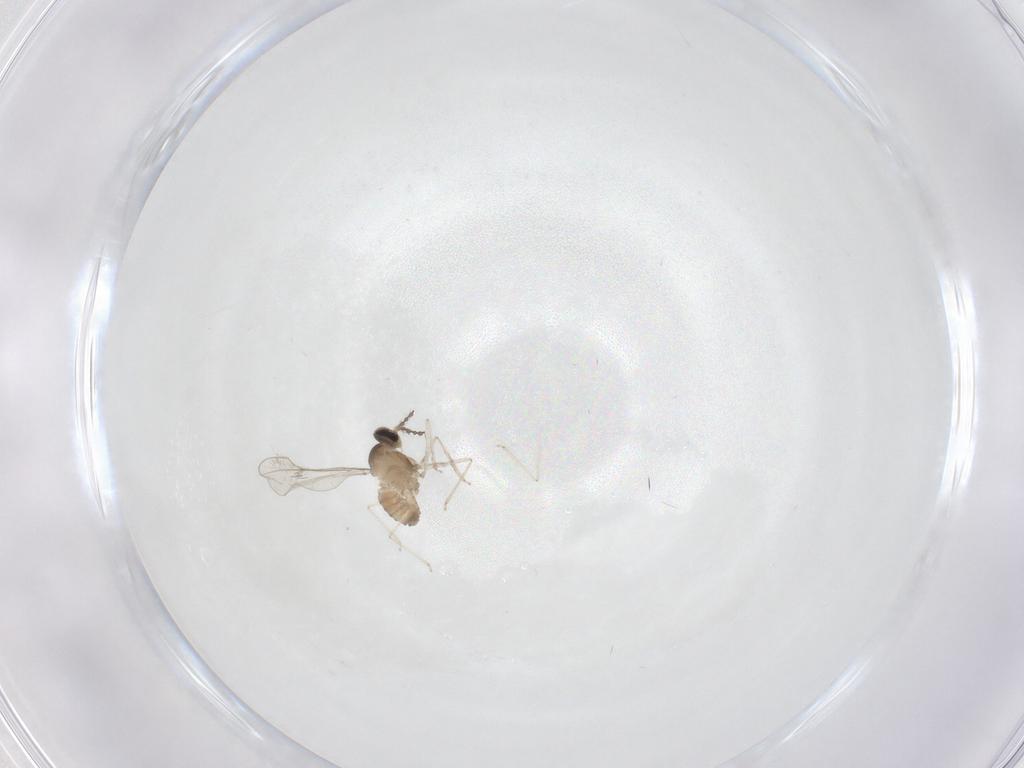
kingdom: Animalia
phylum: Arthropoda
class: Insecta
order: Diptera
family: Cecidomyiidae
